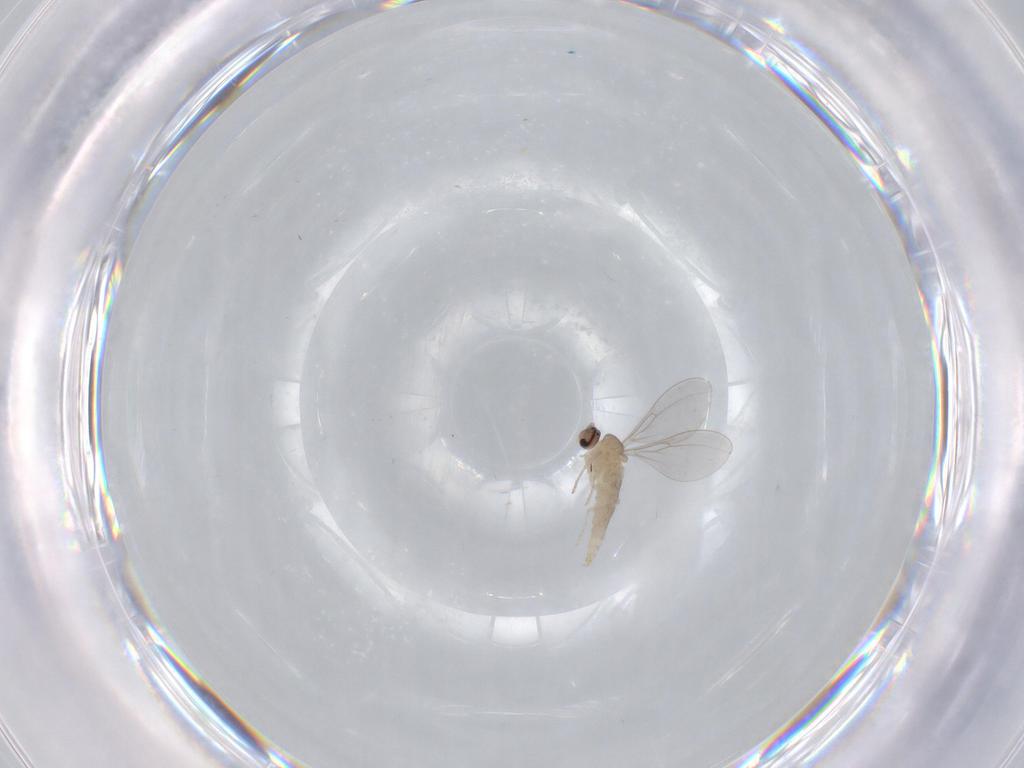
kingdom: Animalia
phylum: Arthropoda
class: Insecta
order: Diptera
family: Cecidomyiidae
